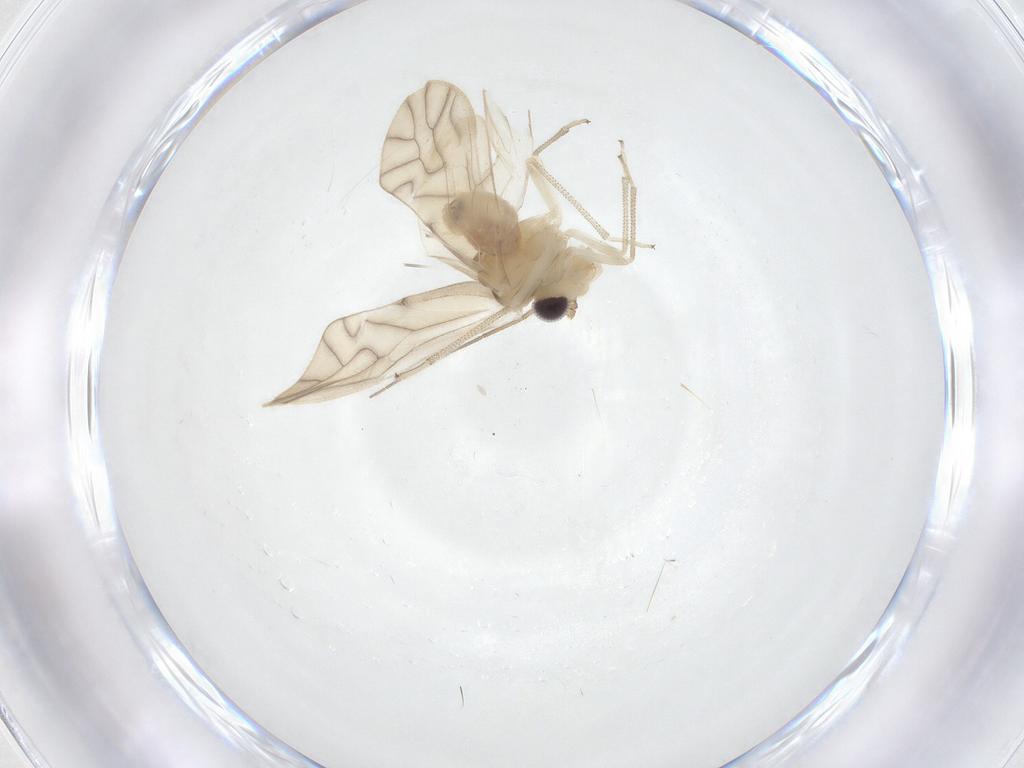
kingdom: Animalia
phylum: Arthropoda
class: Insecta
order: Psocodea
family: Caeciliusidae
